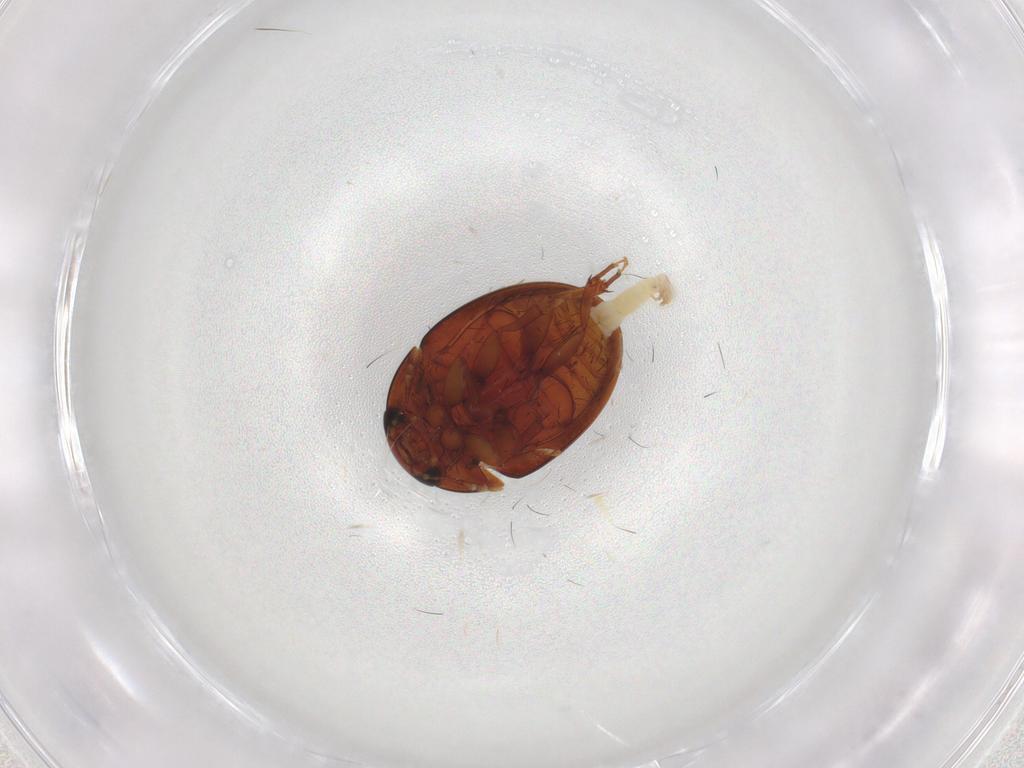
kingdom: Animalia
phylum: Arthropoda
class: Insecta
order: Coleoptera
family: Phalacridae
